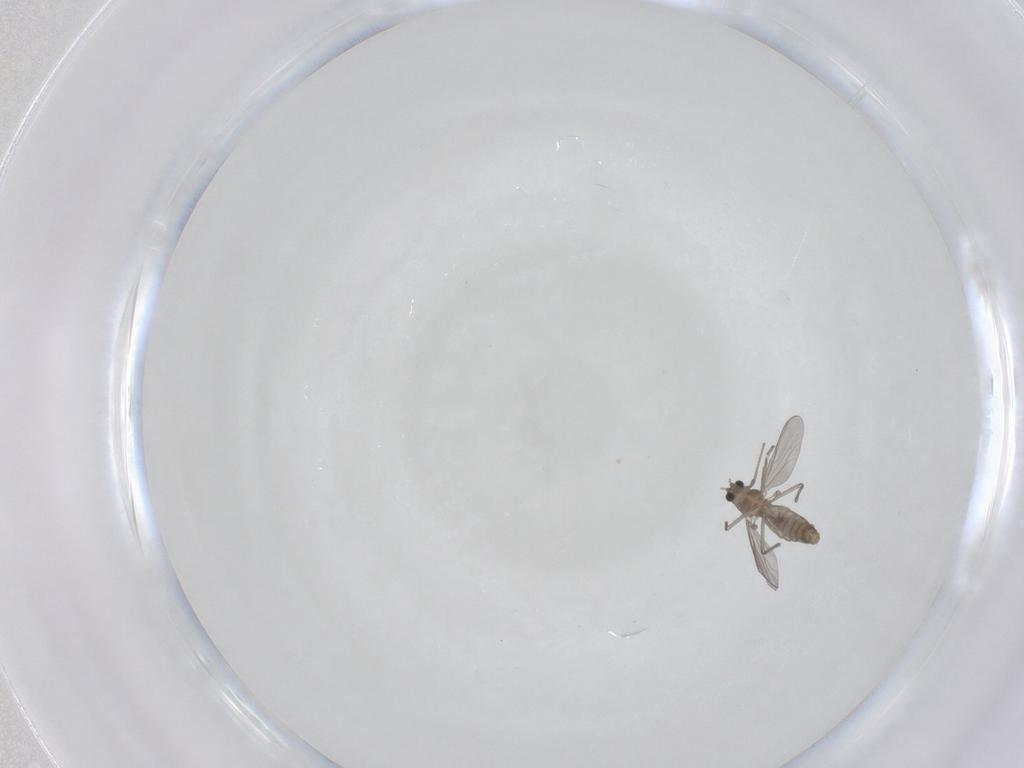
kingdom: Animalia
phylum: Arthropoda
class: Insecta
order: Diptera
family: Chironomidae
